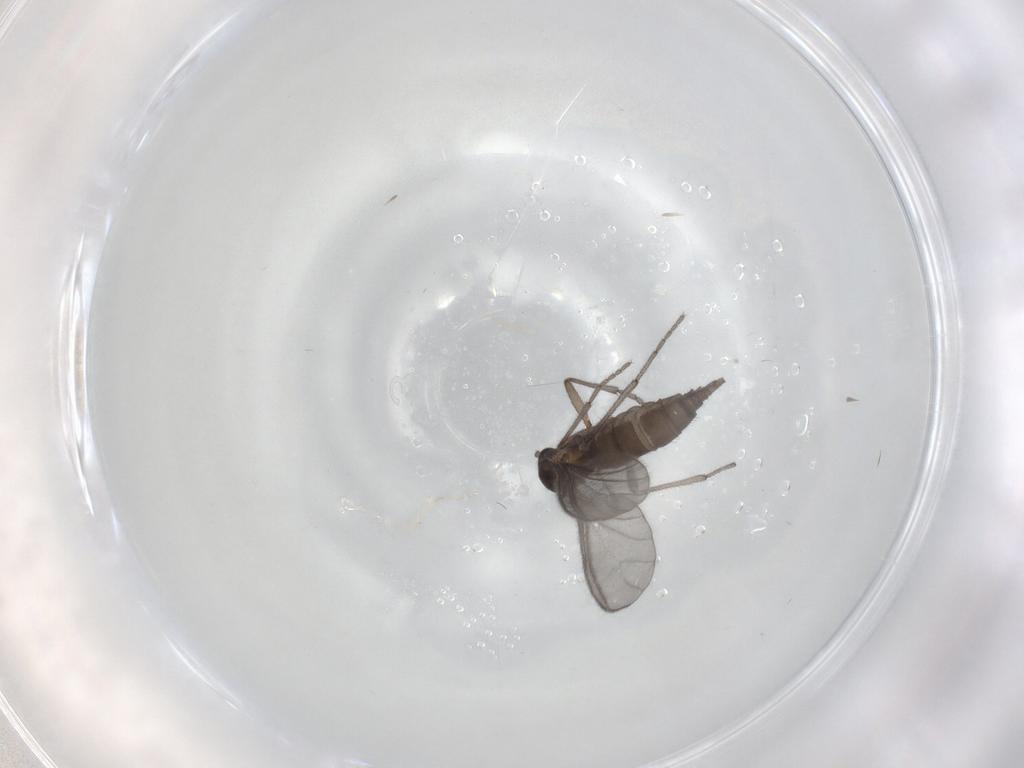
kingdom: Animalia
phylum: Arthropoda
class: Insecta
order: Diptera
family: Sciaridae
